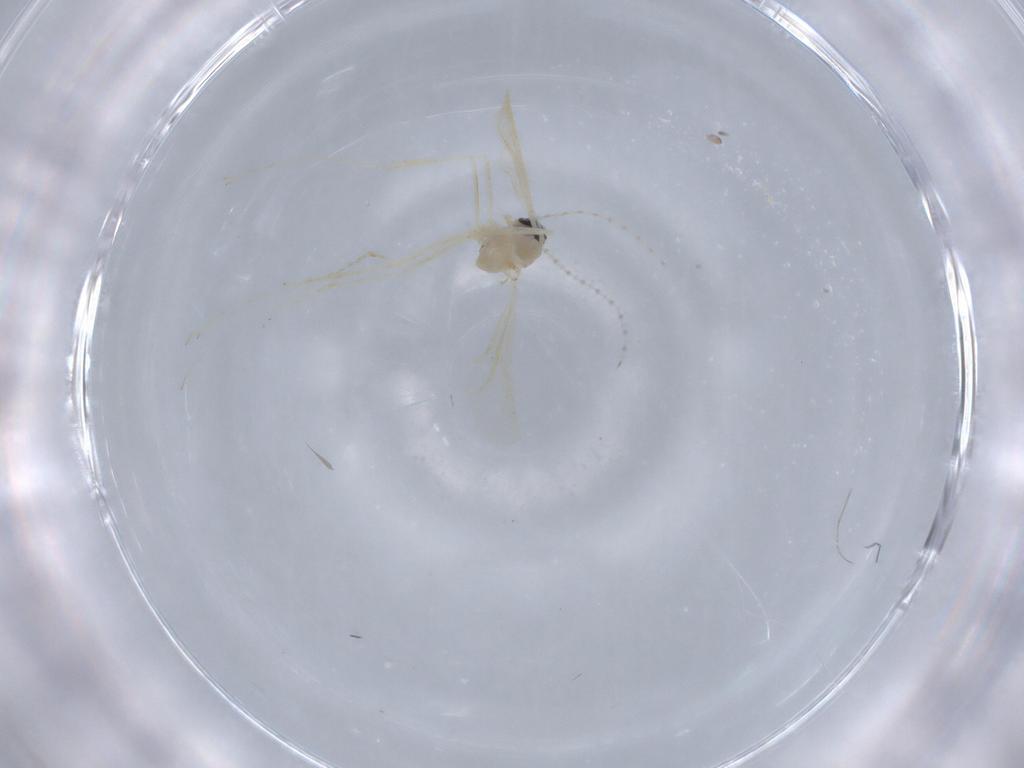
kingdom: Animalia
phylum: Arthropoda
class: Insecta
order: Diptera
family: Cecidomyiidae
